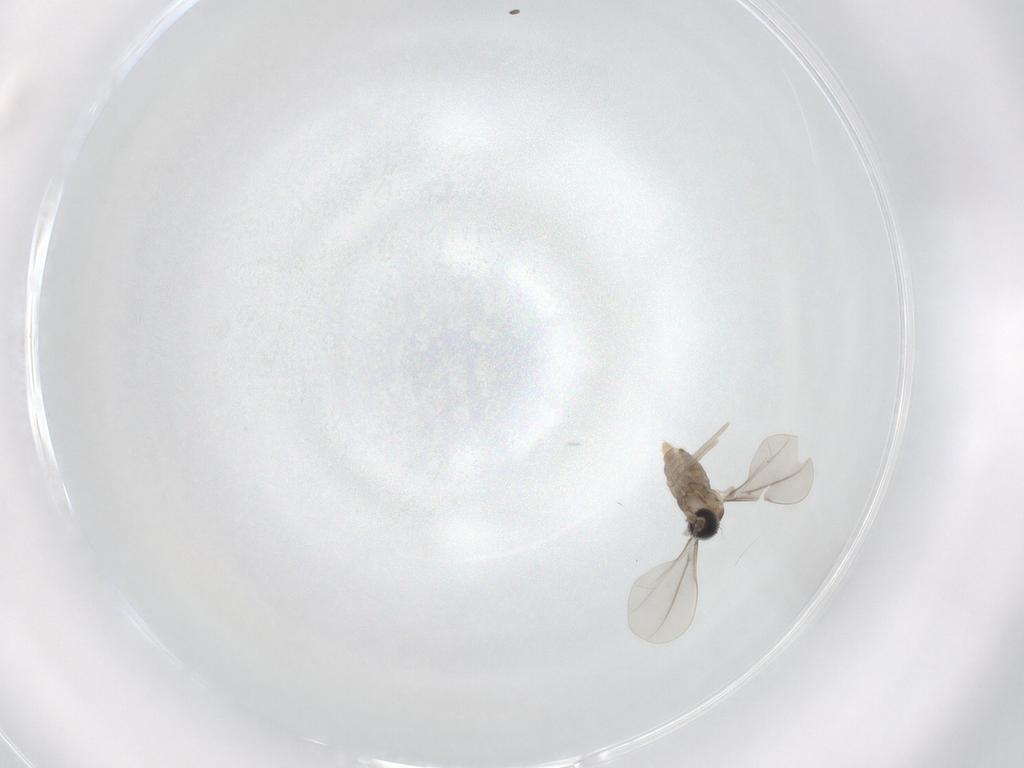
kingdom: Animalia
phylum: Arthropoda
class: Insecta
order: Diptera
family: Cecidomyiidae
